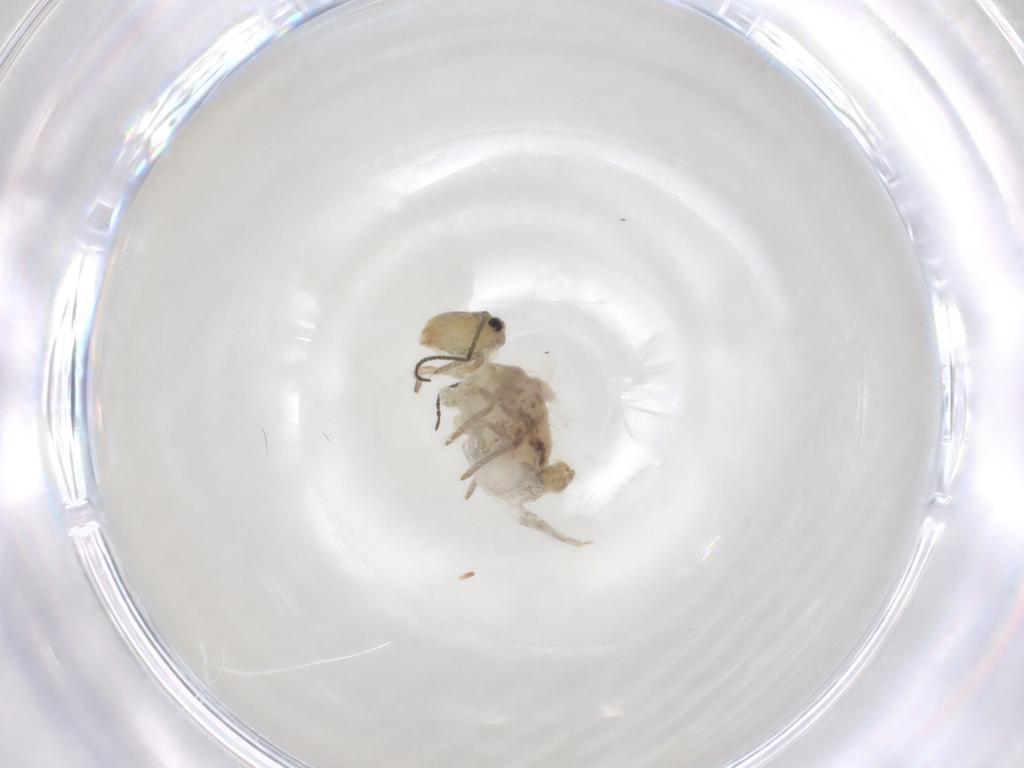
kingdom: Animalia
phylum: Arthropoda
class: Collembola
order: Symphypleona
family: Sminthuridae
